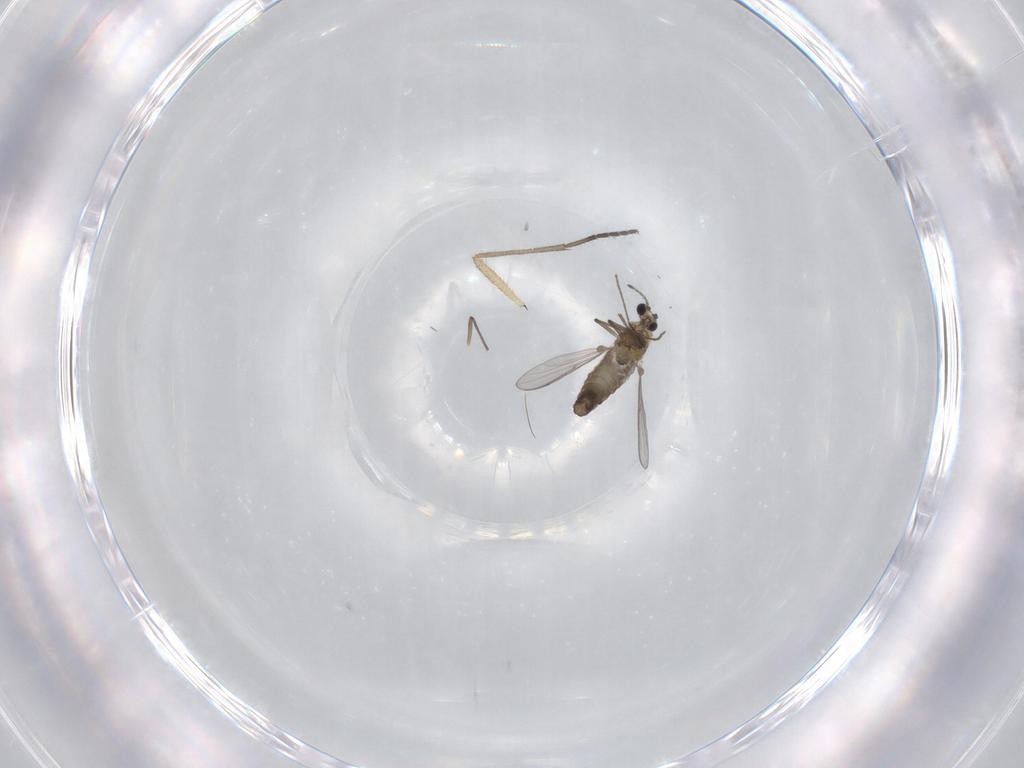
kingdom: Animalia
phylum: Arthropoda
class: Insecta
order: Diptera
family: Chironomidae
